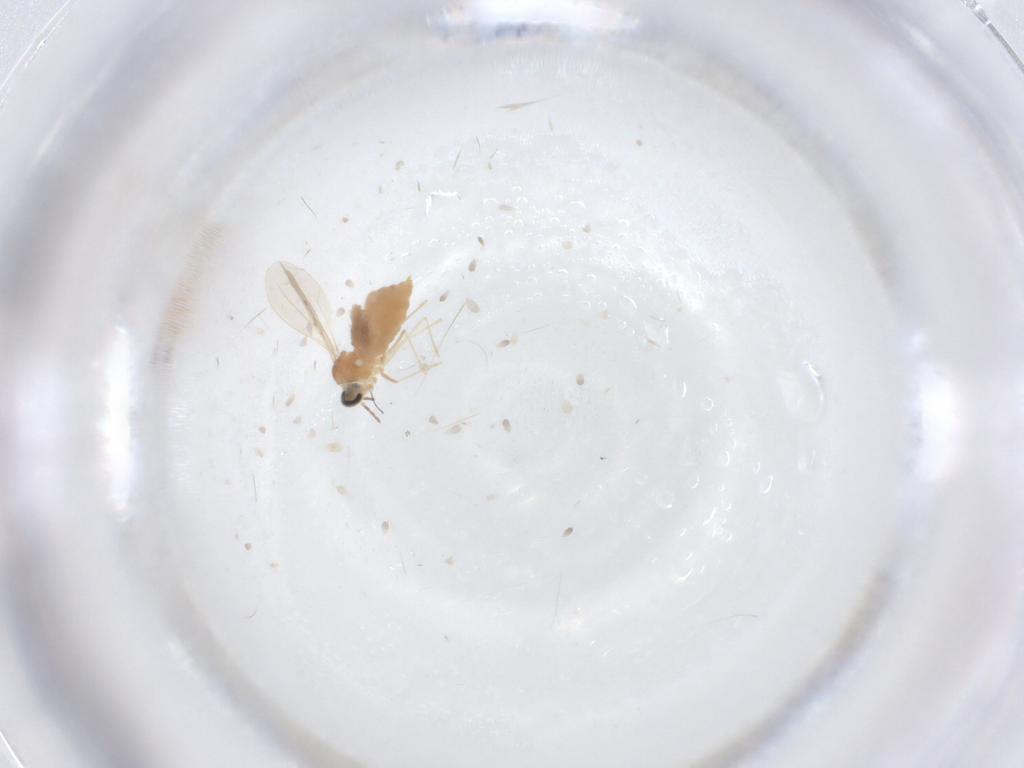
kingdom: Animalia
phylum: Arthropoda
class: Insecta
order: Diptera
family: Cecidomyiidae
